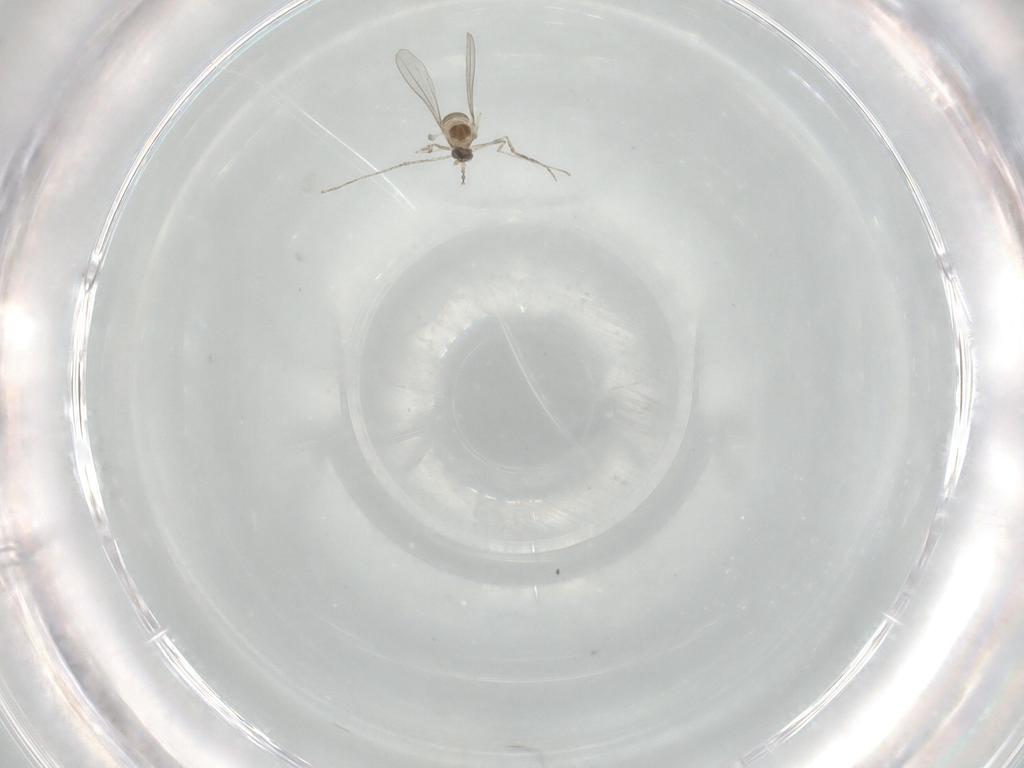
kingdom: Animalia
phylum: Arthropoda
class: Insecta
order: Diptera
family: Cecidomyiidae
